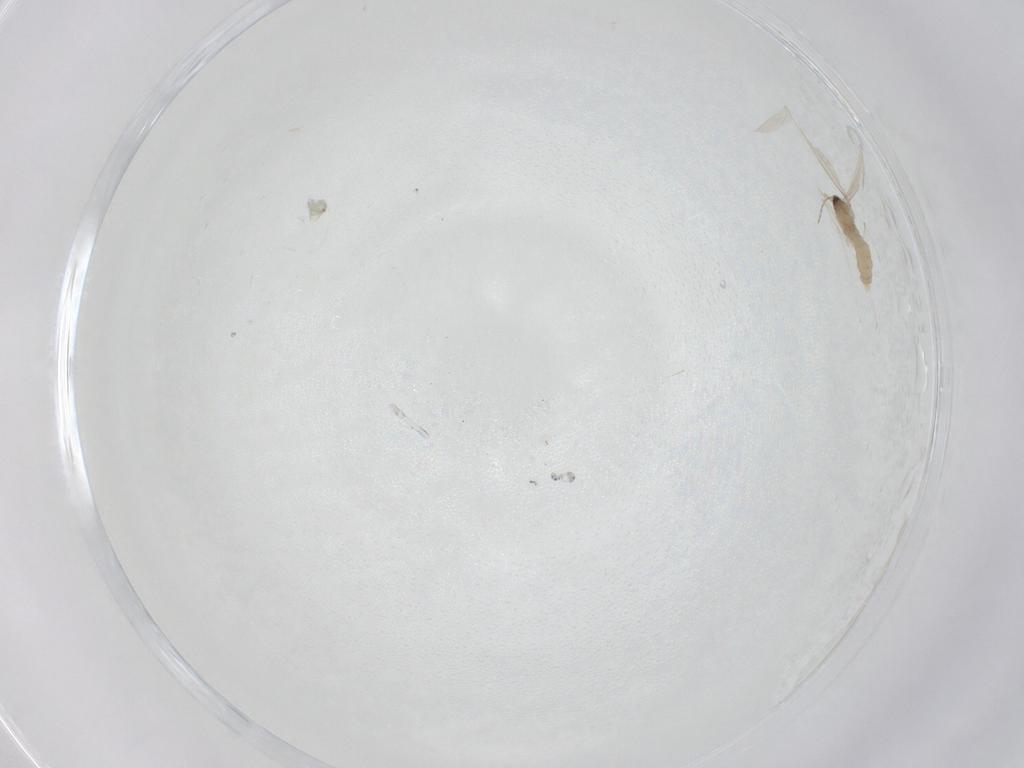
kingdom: Animalia
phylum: Arthropoda
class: Insecta
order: Diptera
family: Cecidomyiidae
